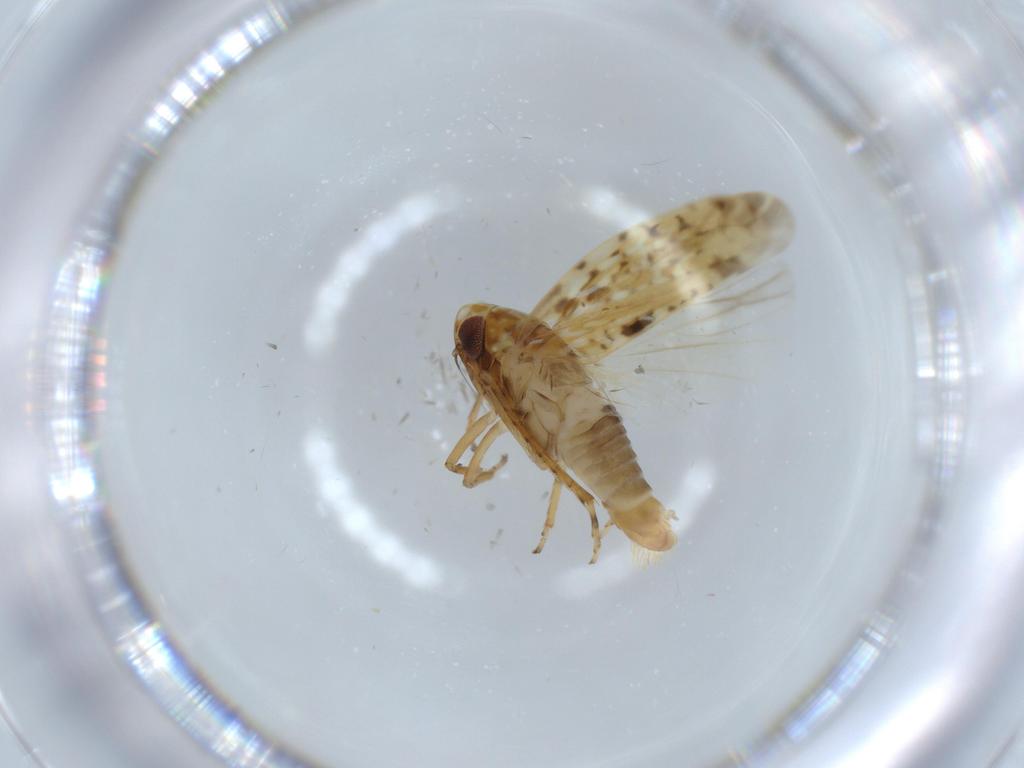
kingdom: Animalia
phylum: Arthropoda
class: Insecta
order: Hemiptera
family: Cicadellidae
